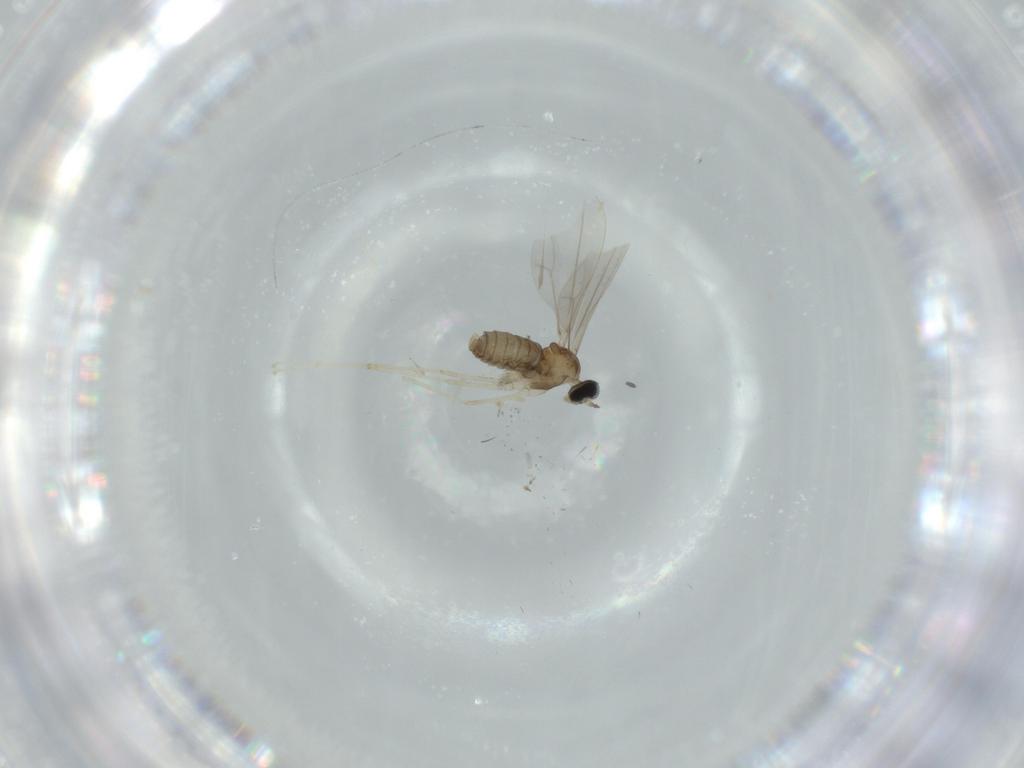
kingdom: Animalia
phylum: Arthropoda
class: Insecta
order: Diptera
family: Cecidomyiidae
